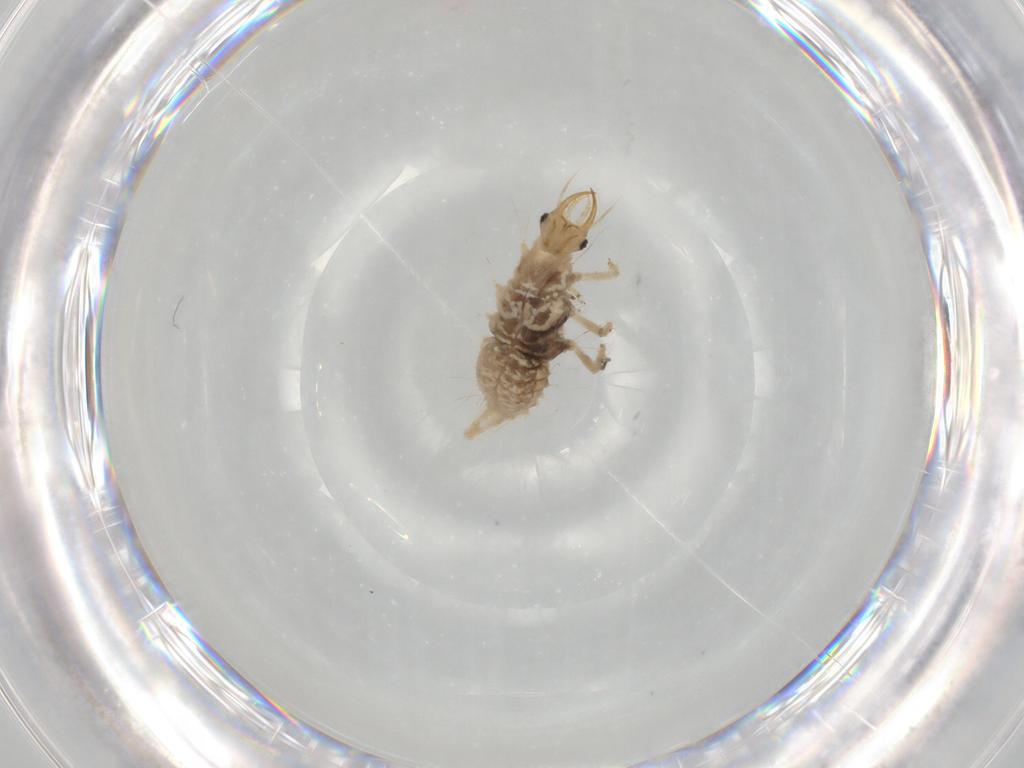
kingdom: Animalia
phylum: Arthropoda
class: Insecta
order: Neuroptera
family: Chrysopidae
